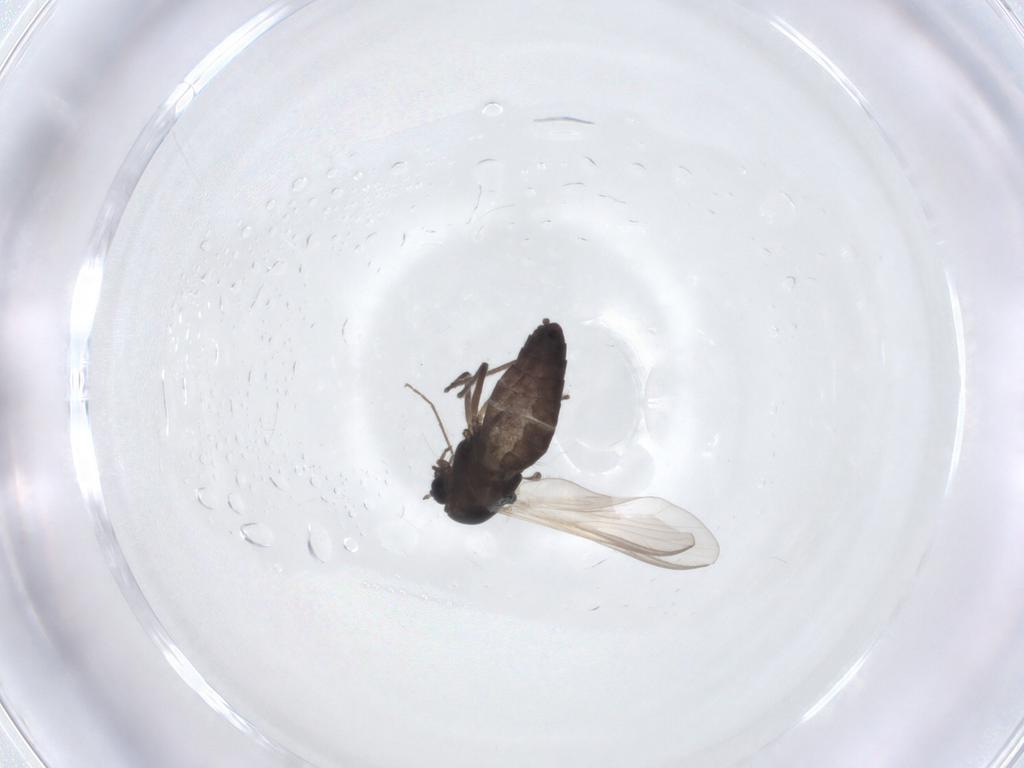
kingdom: Animalia
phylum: Arthropoda
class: Insecta
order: Diptera
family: Chironomidae
